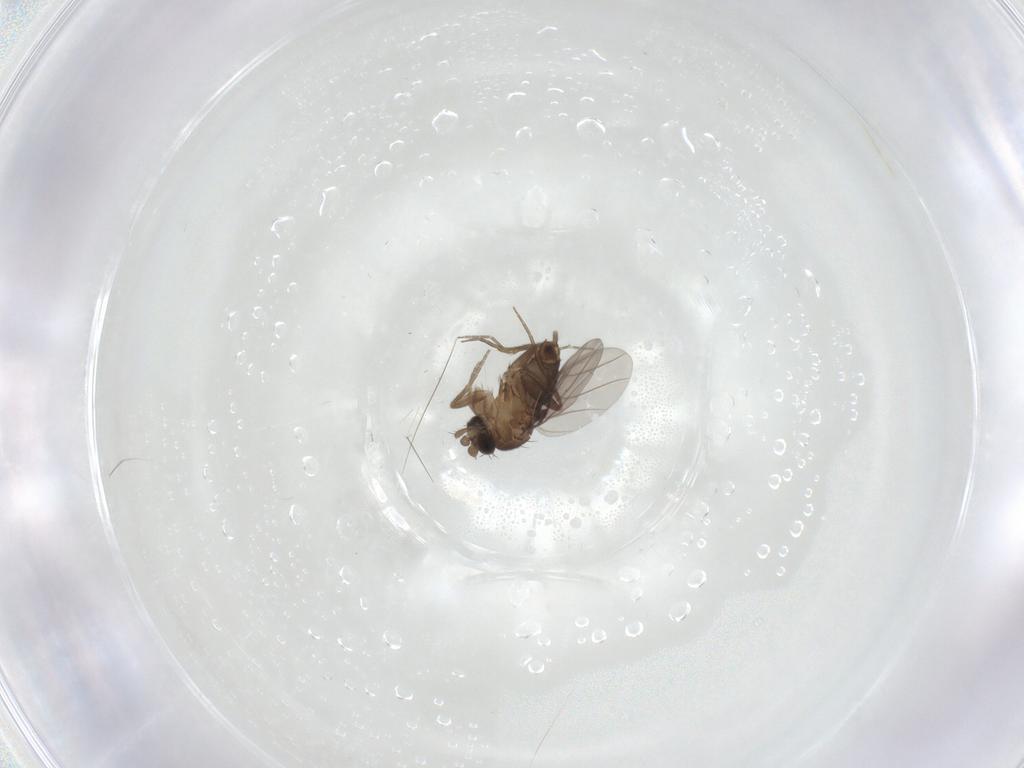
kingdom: Animalia
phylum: Arthropoda
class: Insecta
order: Diptera
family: Phoridae
